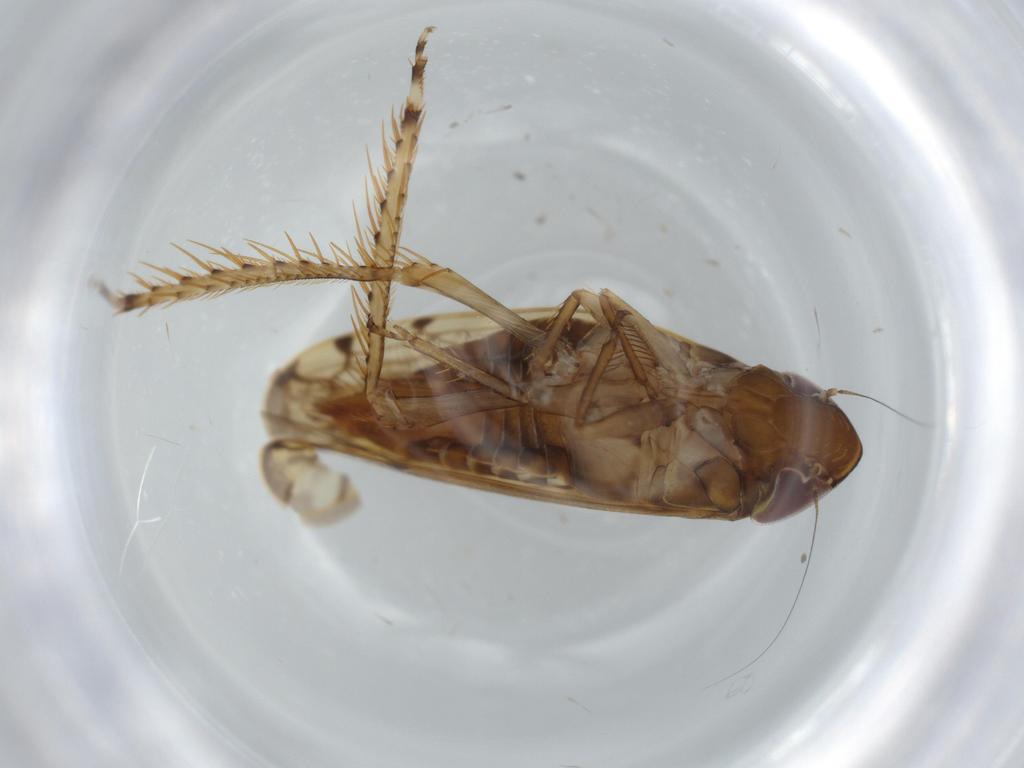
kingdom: Animalia
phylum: Arthropoda
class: Insecta
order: Hemiptera
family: Cicadellidae
